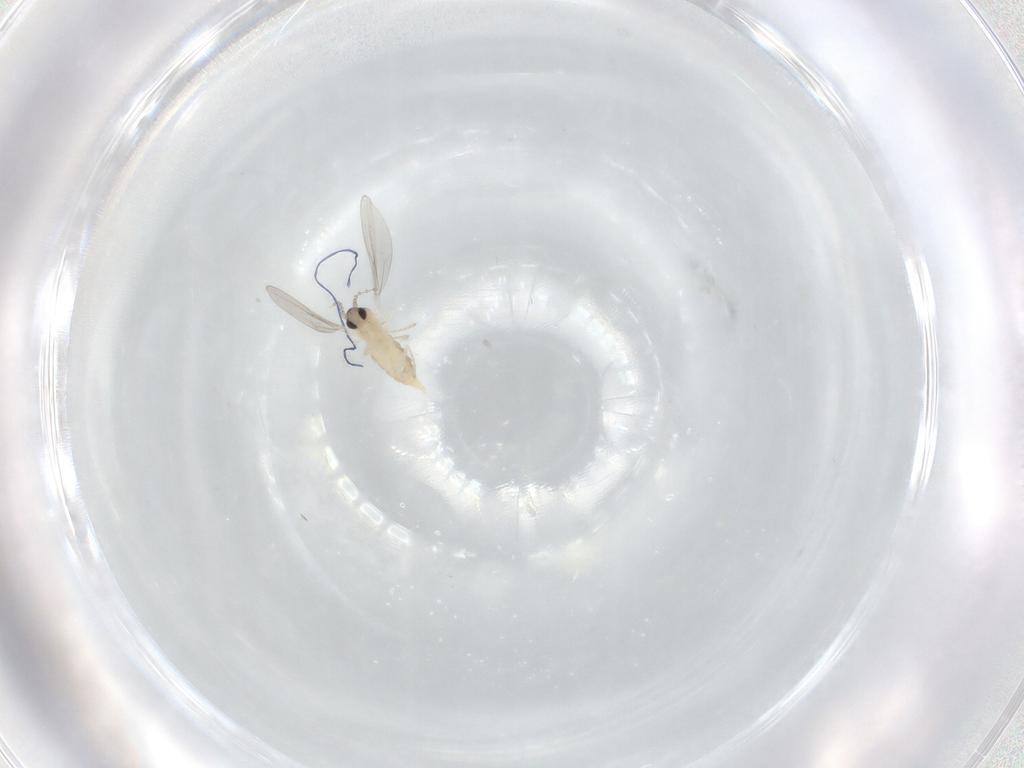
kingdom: Animalia
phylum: Arthropoda
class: Insecta
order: Diptera
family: Cecidomyiidae
